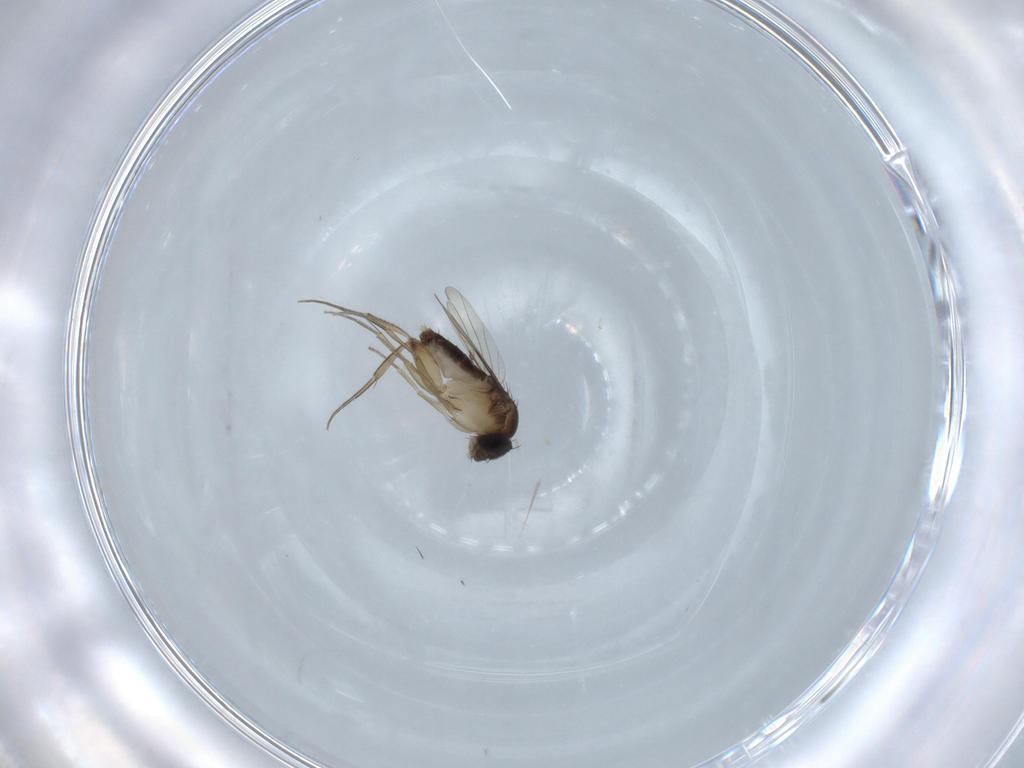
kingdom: Animalia
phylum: Arthropoda
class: Insecta
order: Diptera
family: Phoridae
